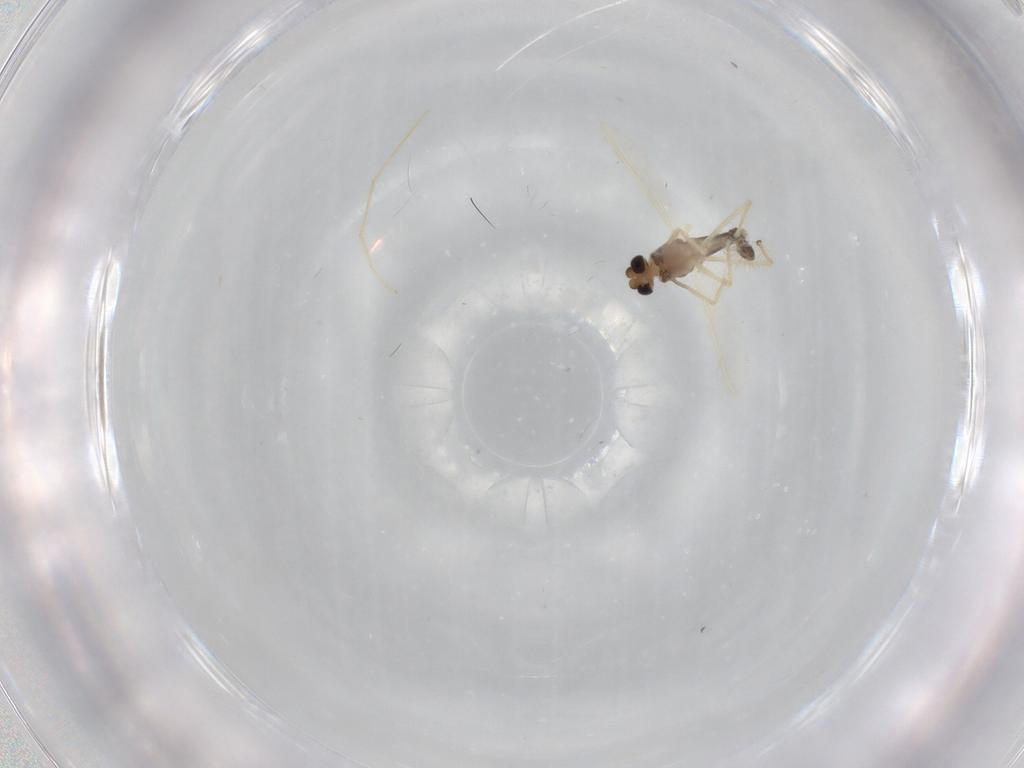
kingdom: Animalia
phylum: Arthropoda
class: Insecta
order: Diptera
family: Chironomidae
